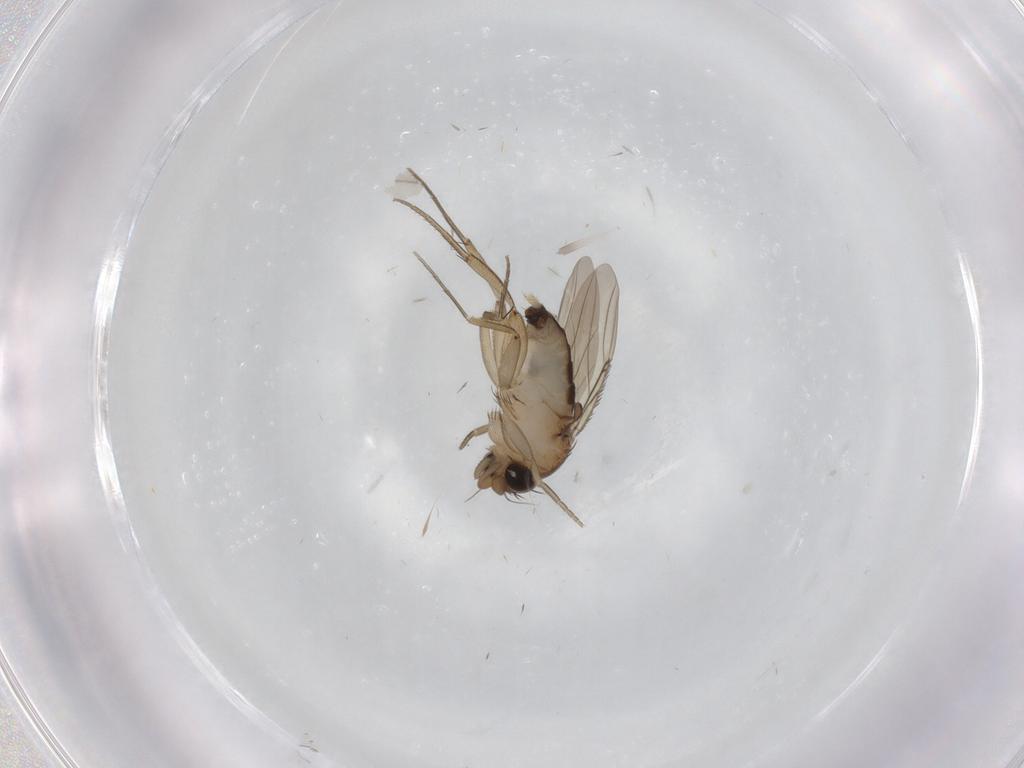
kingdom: Animalia
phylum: Arthropoda
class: Insecta
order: Diptera
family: Phoridae
